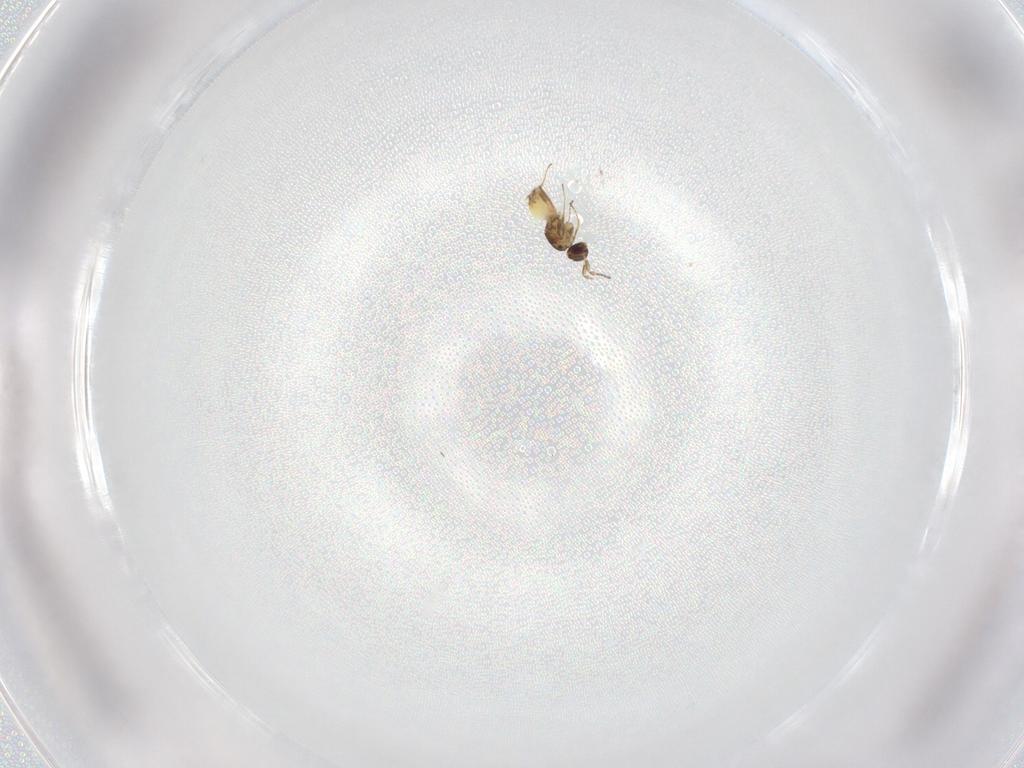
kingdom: Animalia
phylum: Arthropoda
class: Insecta
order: Hymenoptera
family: Mymaridae
